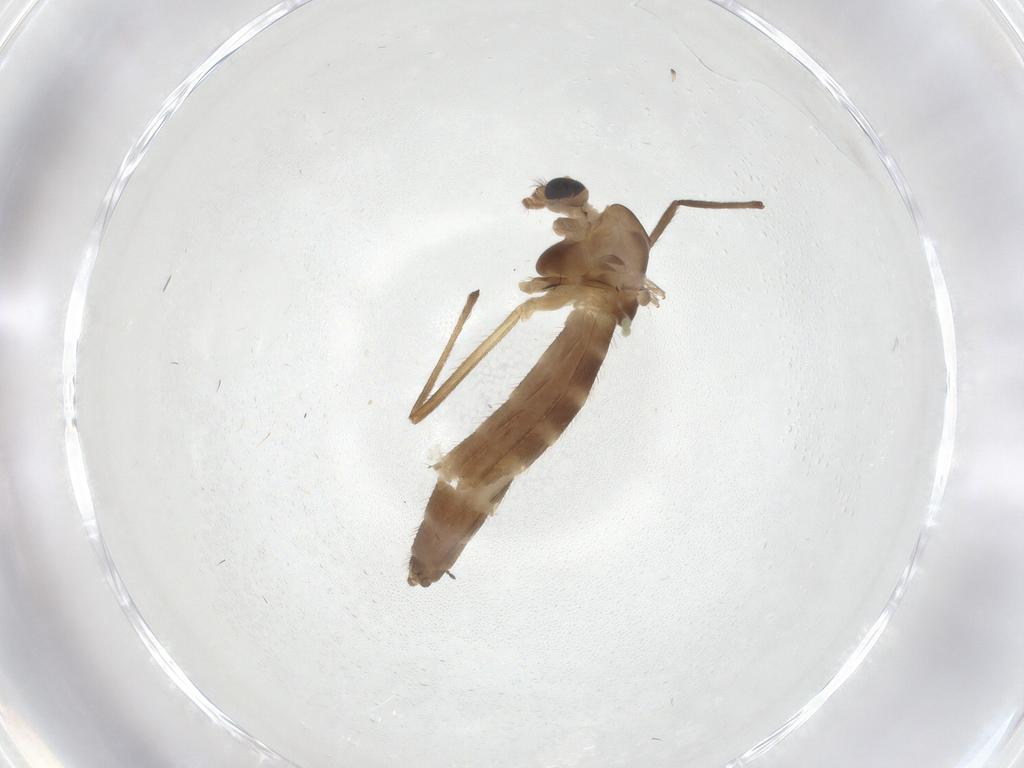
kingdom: Animalia
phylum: Arthropoda
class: Insecta
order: Diptera
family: Chironomidae
